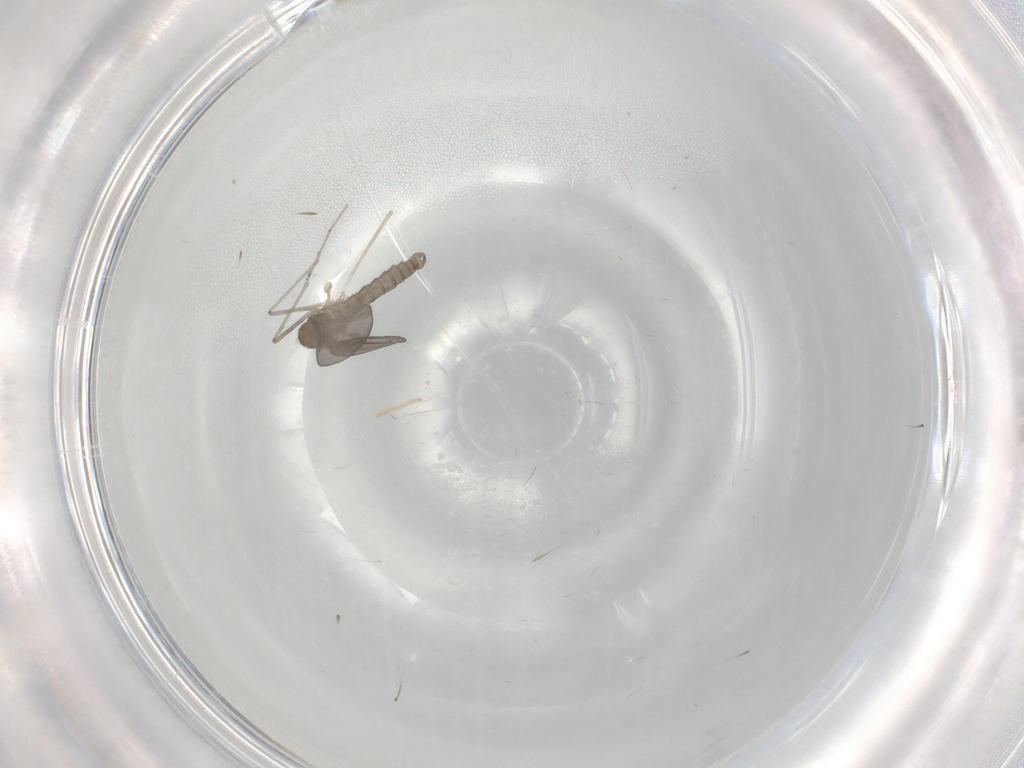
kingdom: Animalia
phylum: Arthropoda
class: Insecta
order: Diptera
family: Cecidomyiidae
